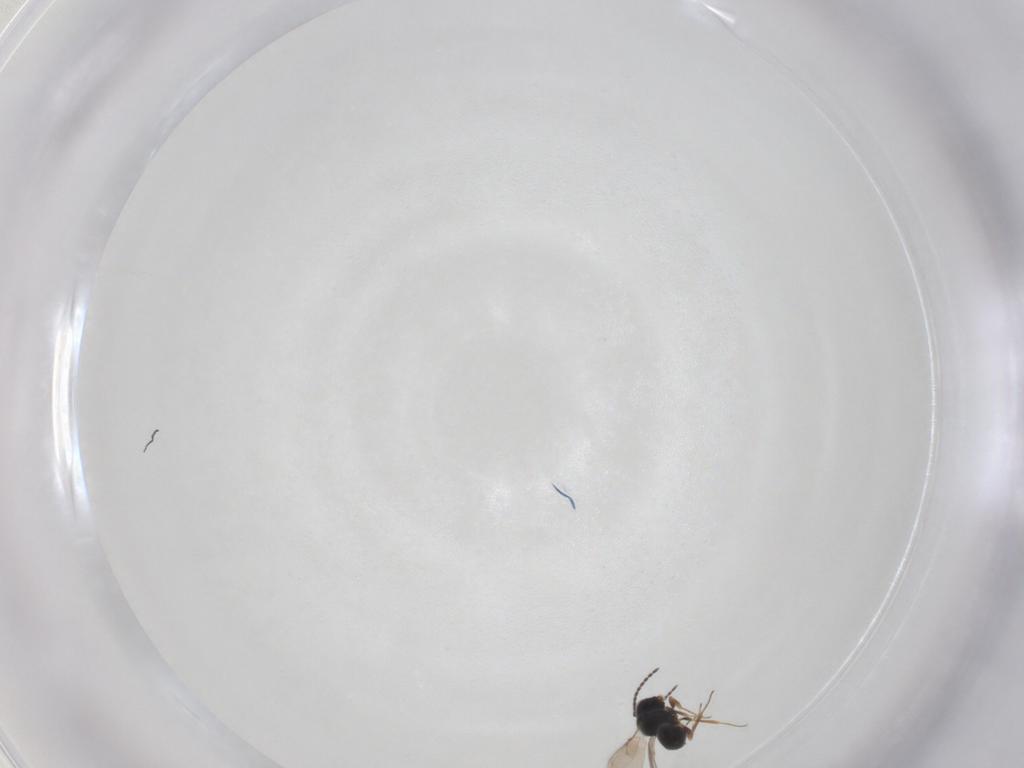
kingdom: Animalia
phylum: Arthropoda
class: Insecta
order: Hymenoptera
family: Scelionidae
